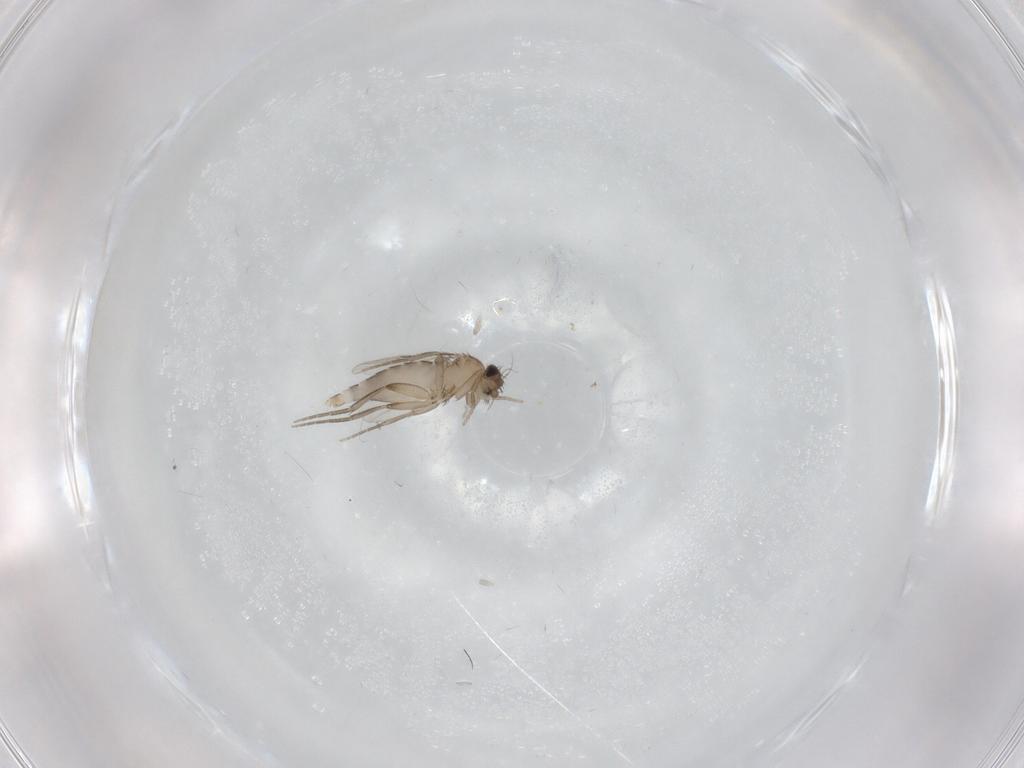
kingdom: Animalia
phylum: Arthropoda
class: Insecta
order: Diptera
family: Phoridae
